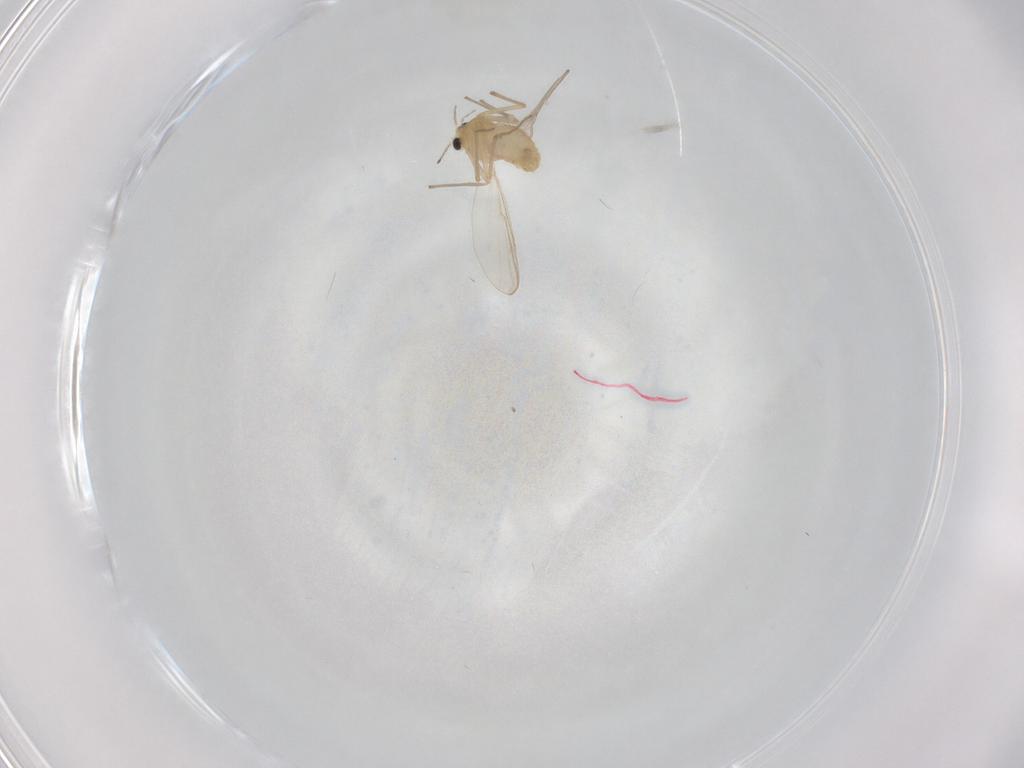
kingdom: Animalia
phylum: Arthropoda
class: Insecta
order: Diptera
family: Chironomidae
